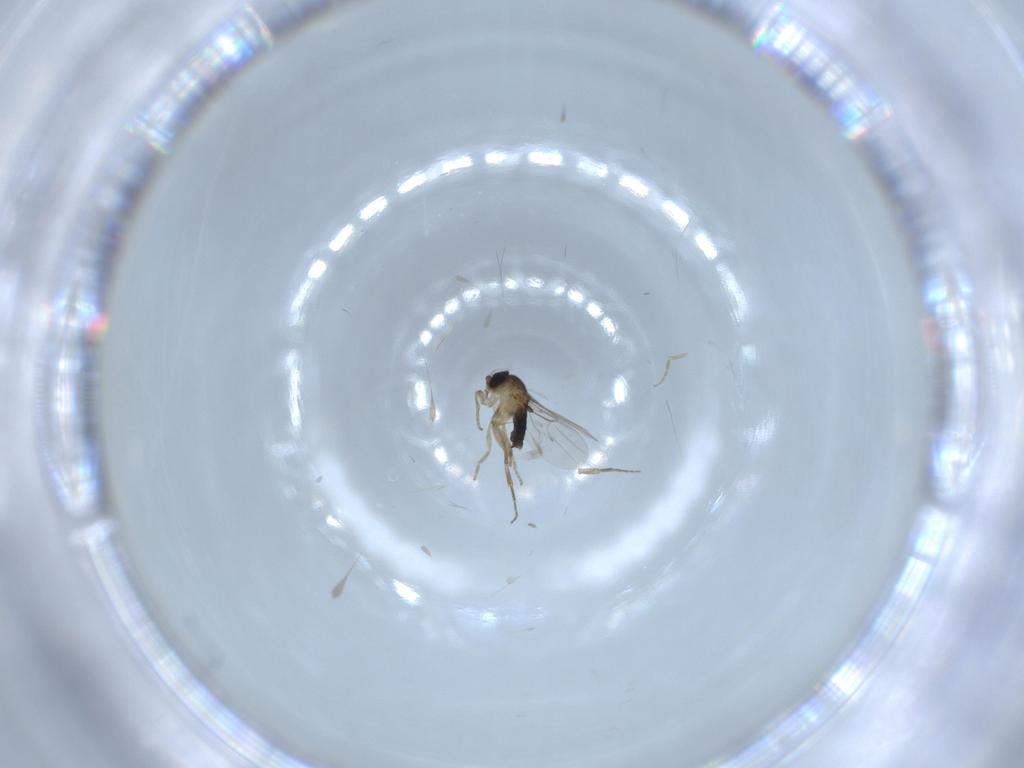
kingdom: Animalia
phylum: Arthropoda
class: Insecta
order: Diptera
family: Phoridae
